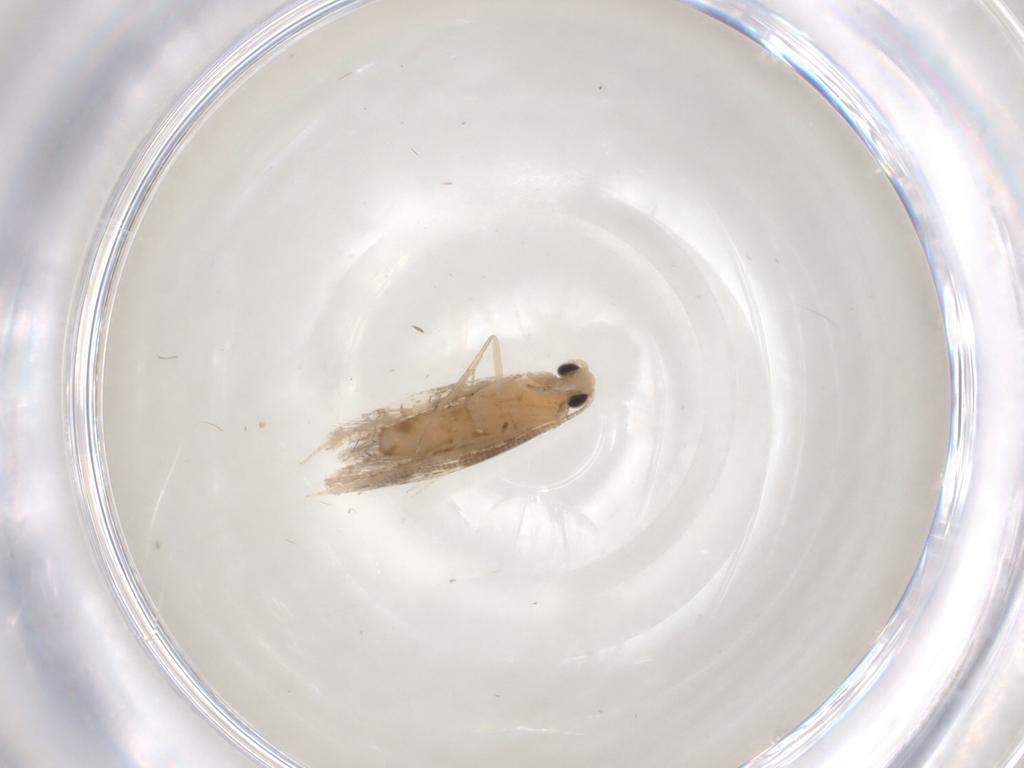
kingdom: Animalia
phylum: Arthropoda
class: Insecta
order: Lepidoptera
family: Tineidae
